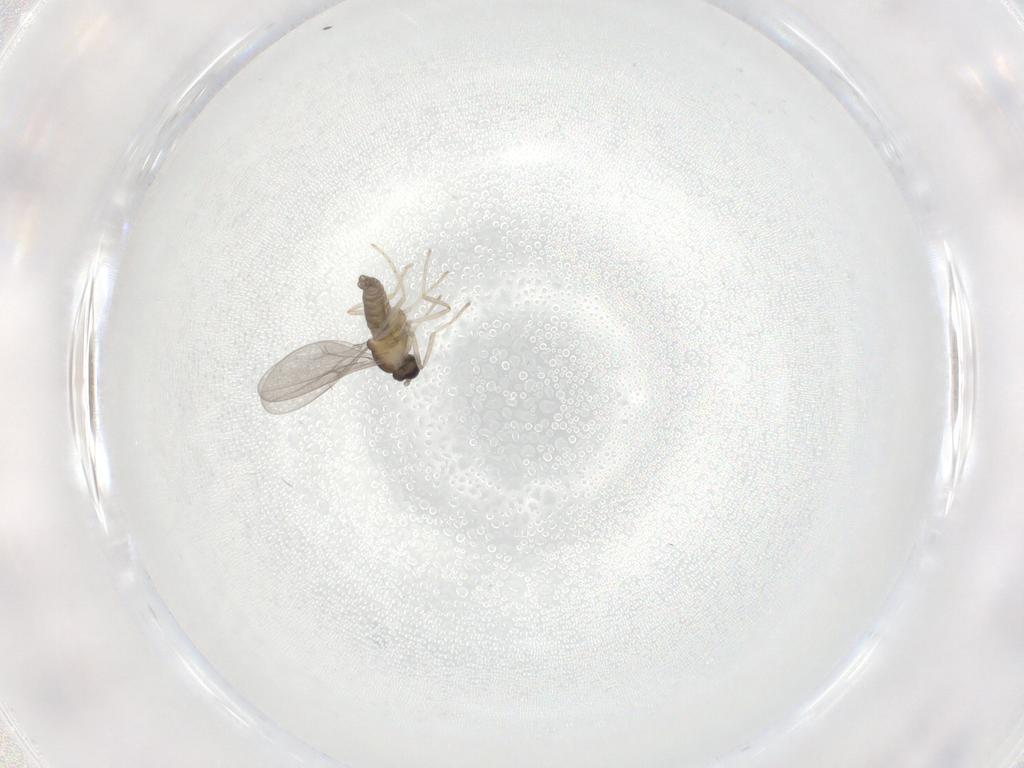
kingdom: Animalia
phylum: Arthropoda
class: Insecta
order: Diptera
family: Cecidomyiidae
